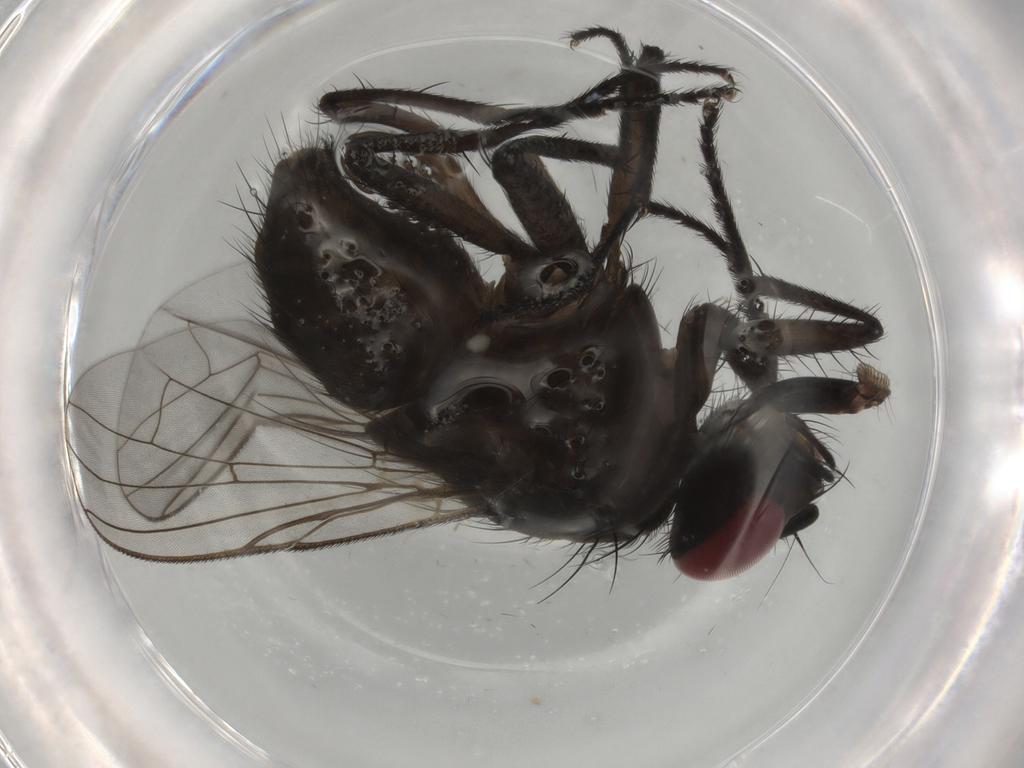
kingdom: Animalia
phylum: Arthropoda
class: Insecta
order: Diptera
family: Muscidae
